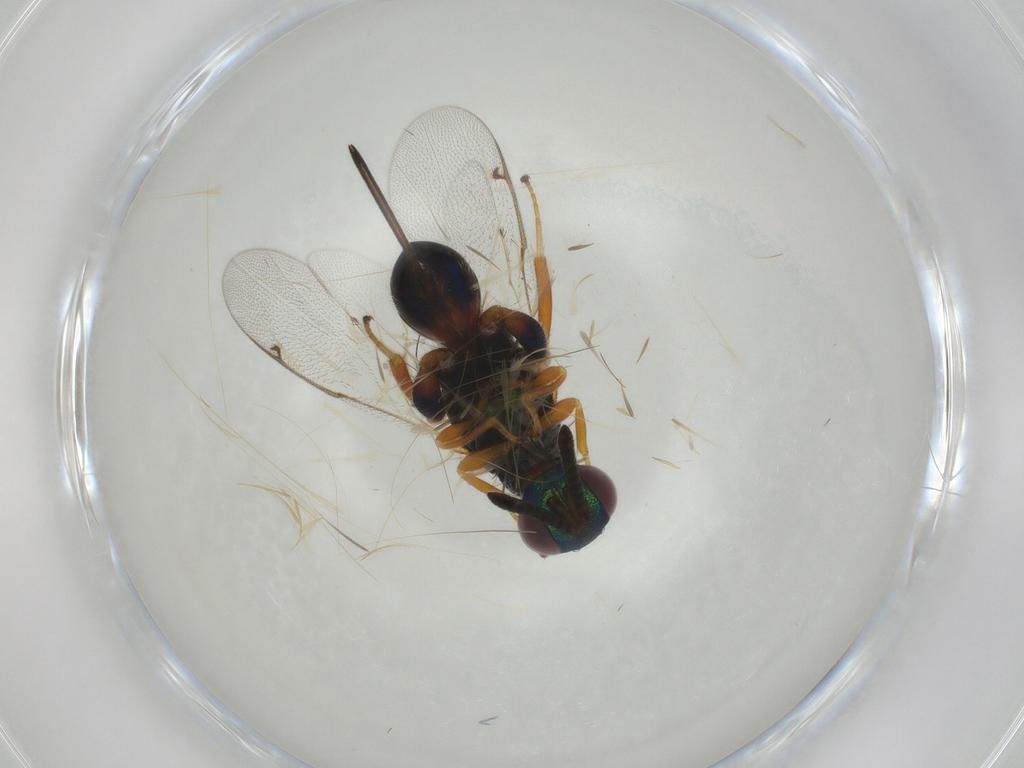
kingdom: Animalia
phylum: Arthropoda
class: Insecta
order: Hymenoptera
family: Torymidae
